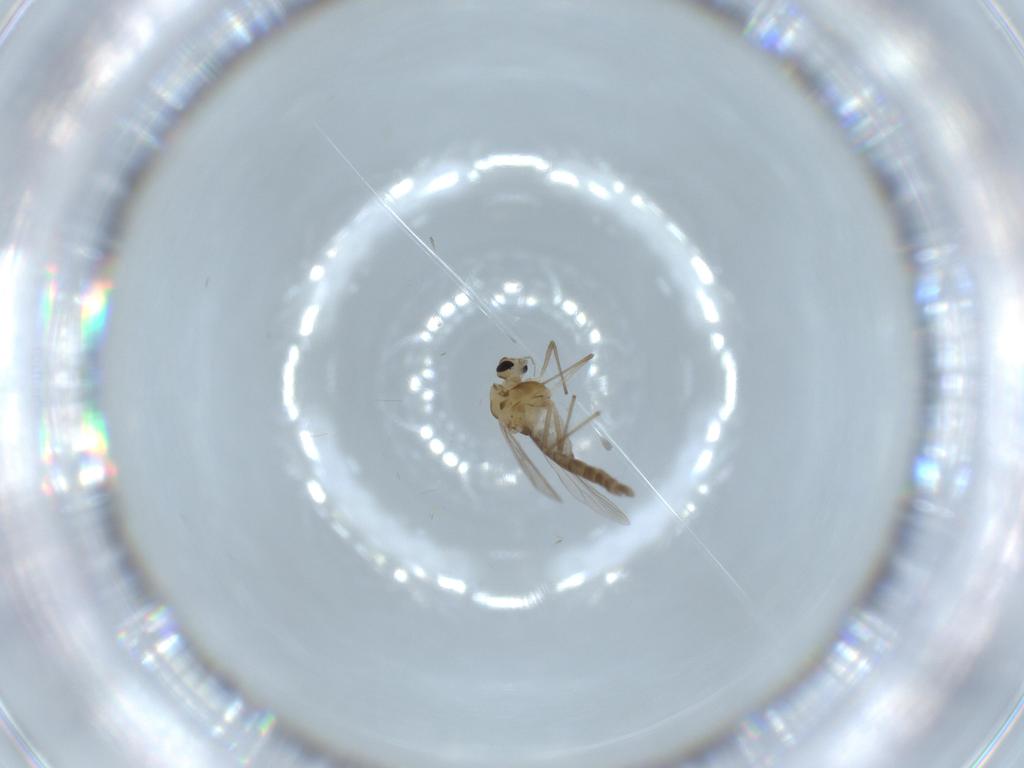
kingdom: Animalia
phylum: Arthropoda
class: Insecta
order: Diptera
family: Chironomidae
